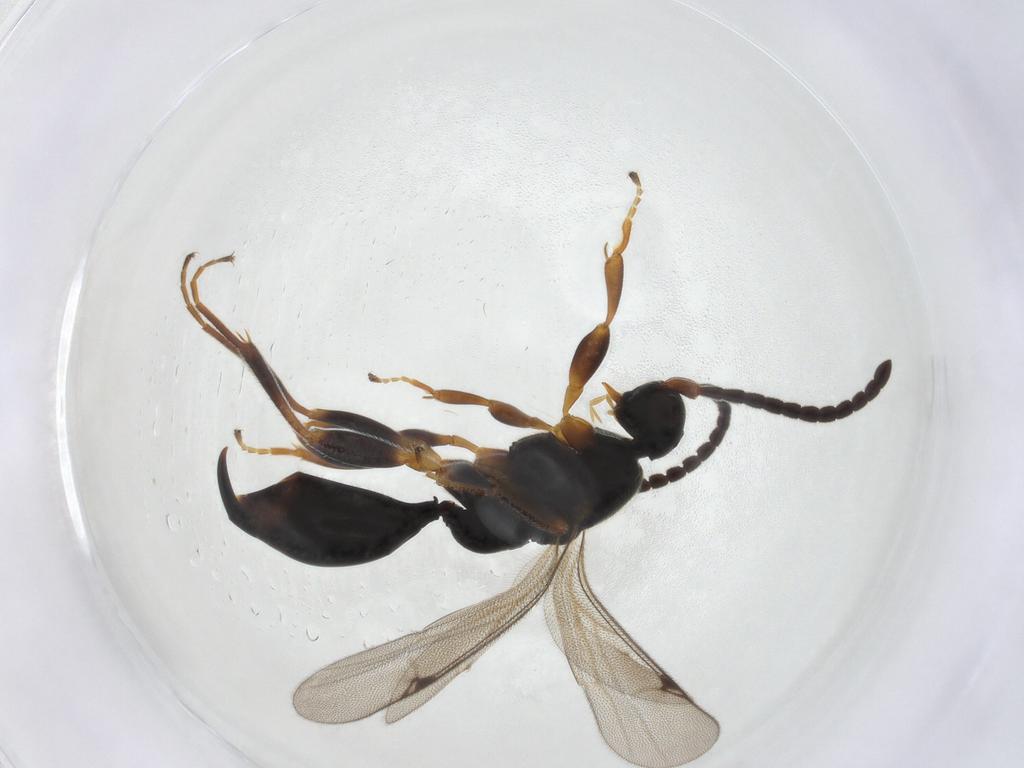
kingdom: Animalia
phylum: Arthropoda
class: Insecta
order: Hymenoptera
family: Proctotrupidae
